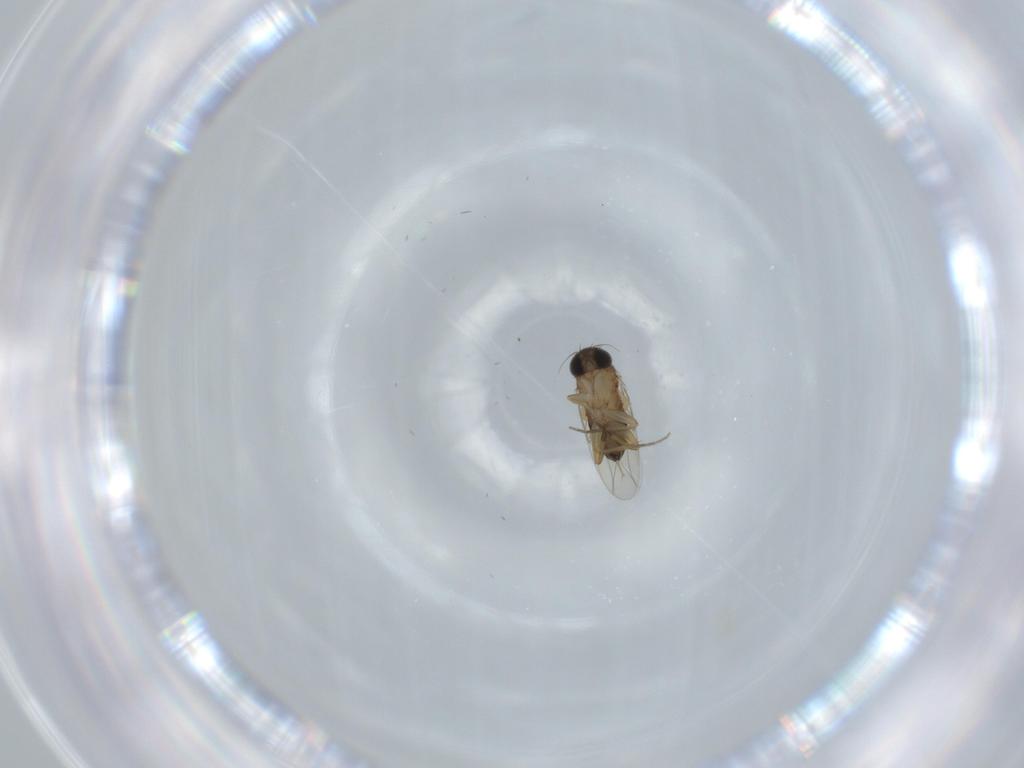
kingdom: Animalia
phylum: Arthropoda
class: Insecta
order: Diptera
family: Phoridae
